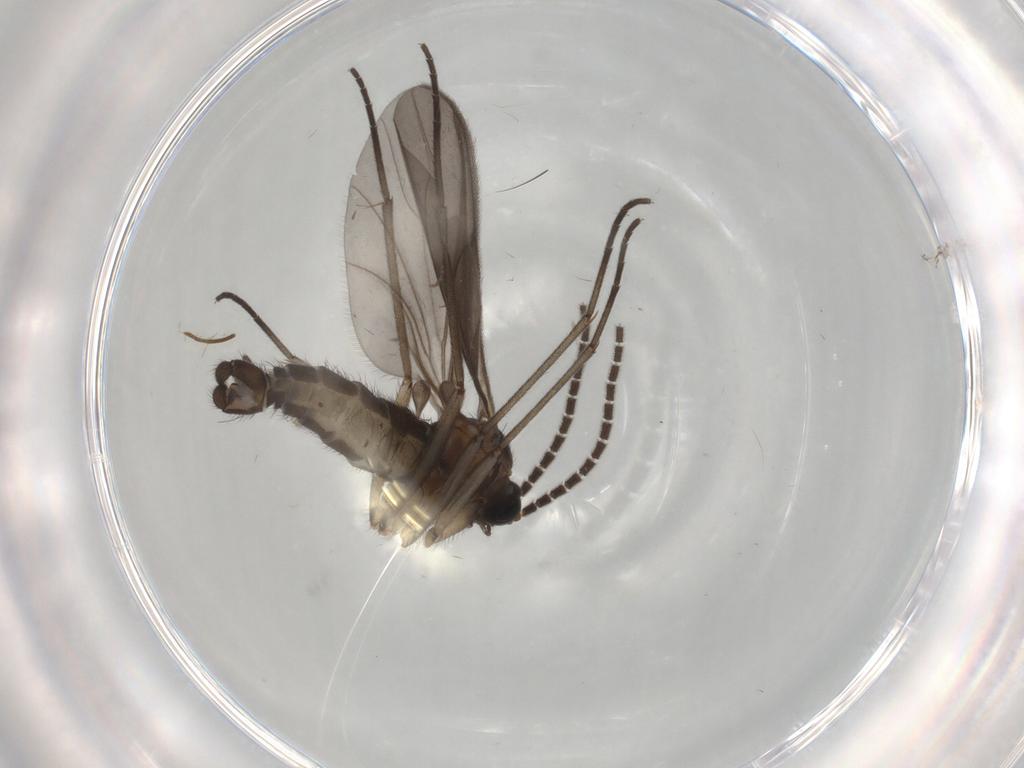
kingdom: Animalia
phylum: Arthropoda
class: Insecta
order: Diptera
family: Sciaridae
